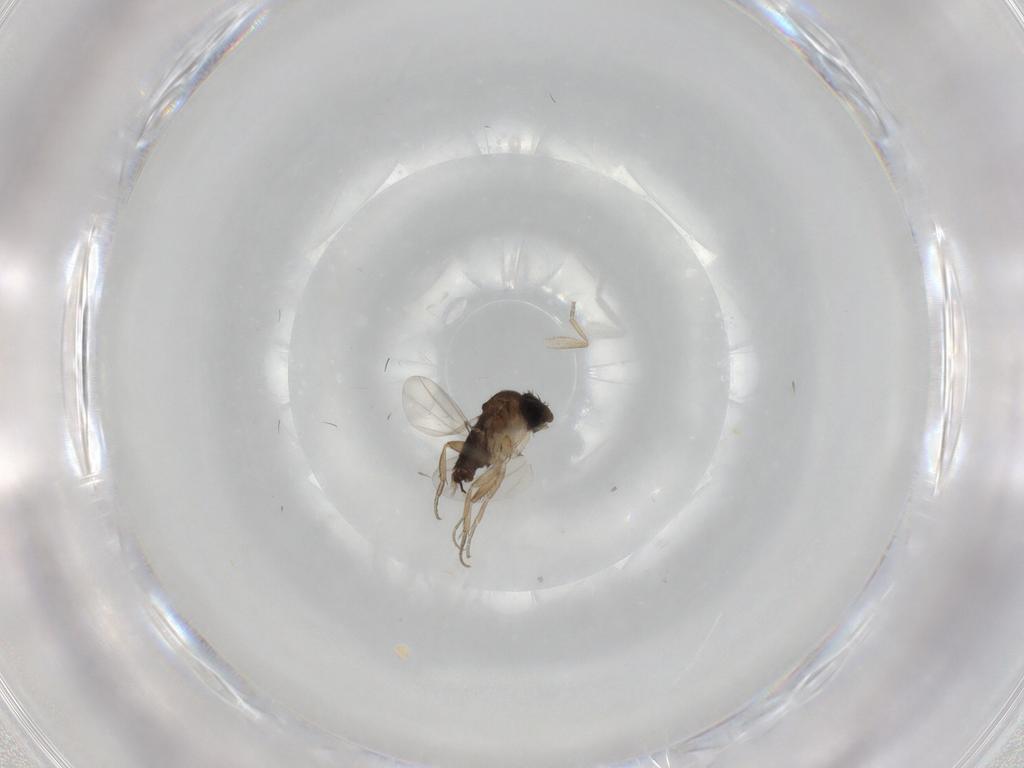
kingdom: Animalia
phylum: Arthropoda
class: Insecta
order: Diptera
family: Phoridae
